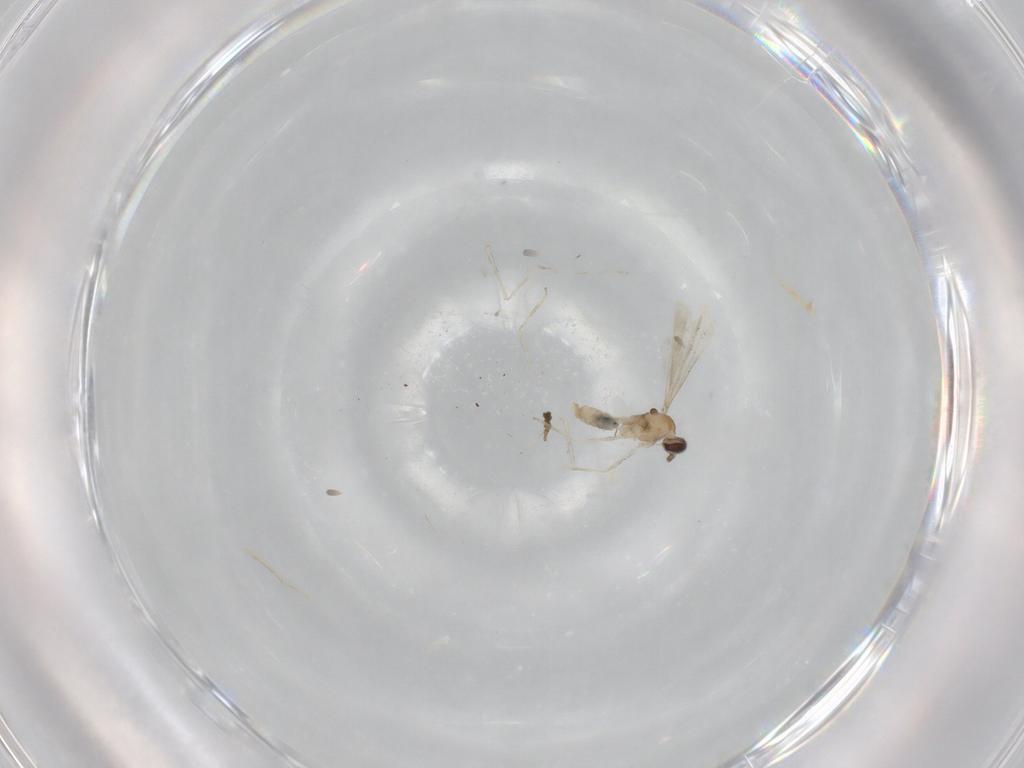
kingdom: Animalia
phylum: Arthropoda
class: Insecta
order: Diptera
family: Cecidomyiidae
